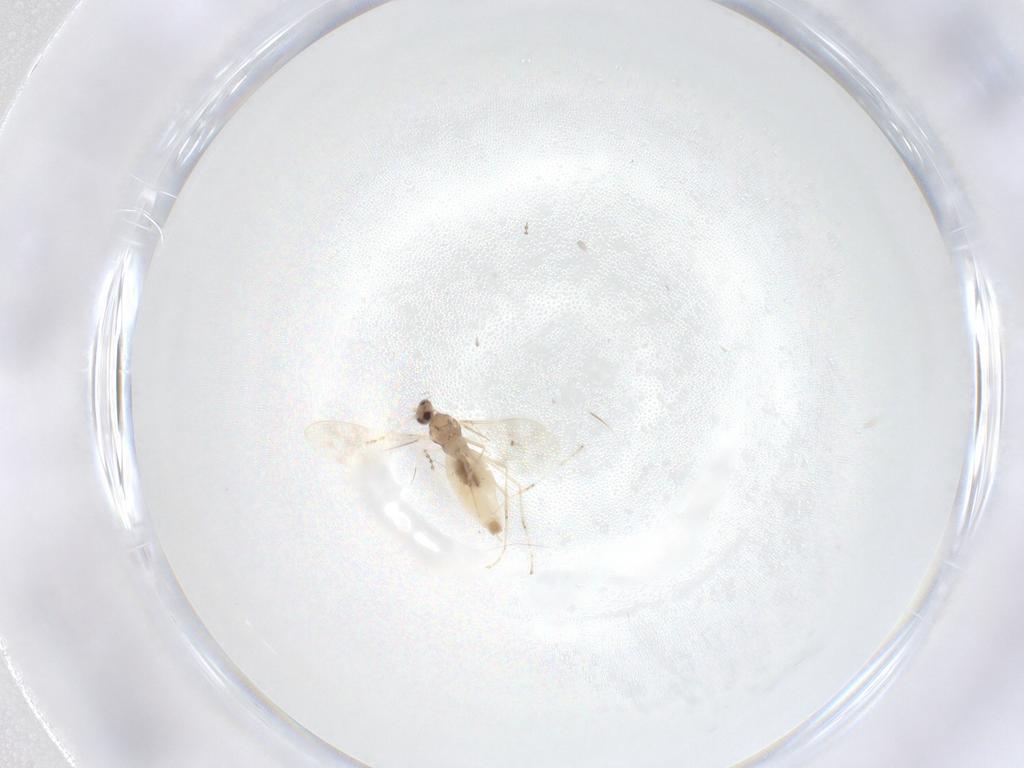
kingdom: Animalia
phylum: Arthropoda
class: Insecta
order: Diptera
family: Cecidomyiidae
